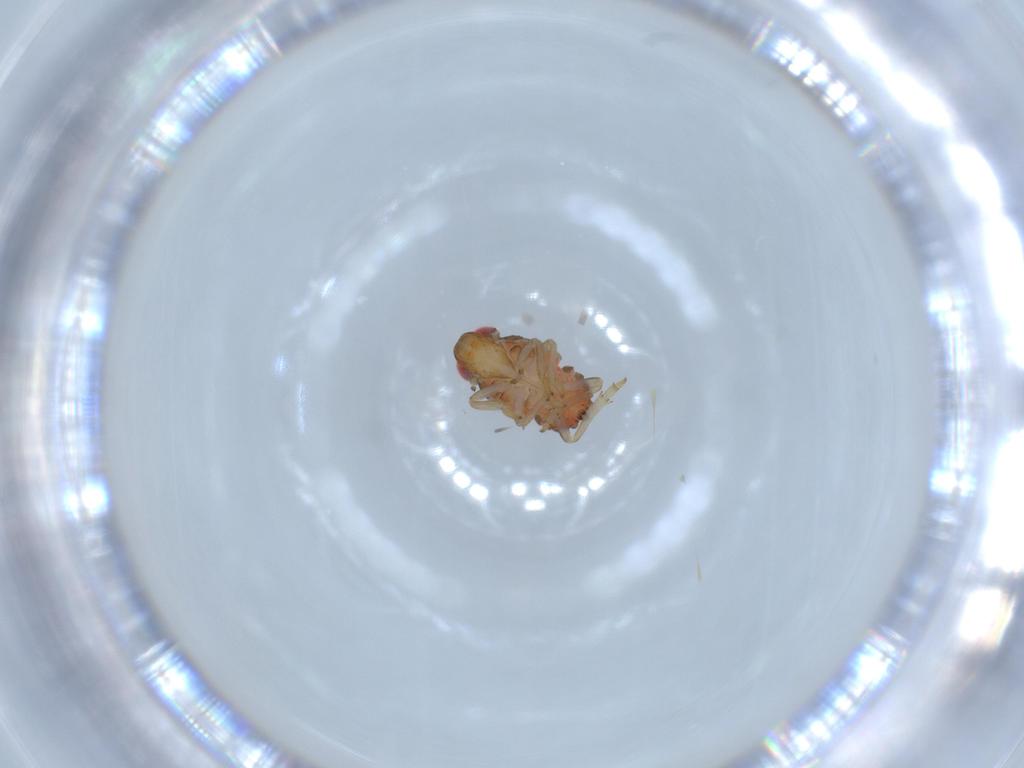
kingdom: Animalia
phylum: Arthropoda
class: Insecta
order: Hemiptera
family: Issidae
